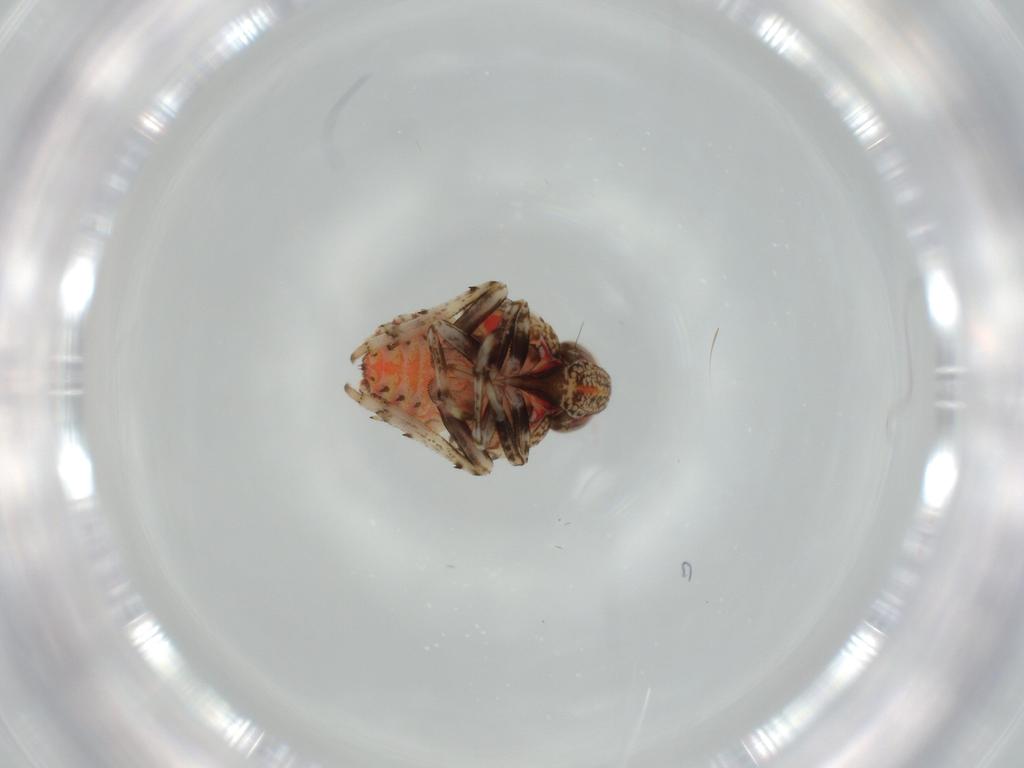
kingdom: Animalia
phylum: Arthropoda
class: Insecta
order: Hemiptera
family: Issidae
